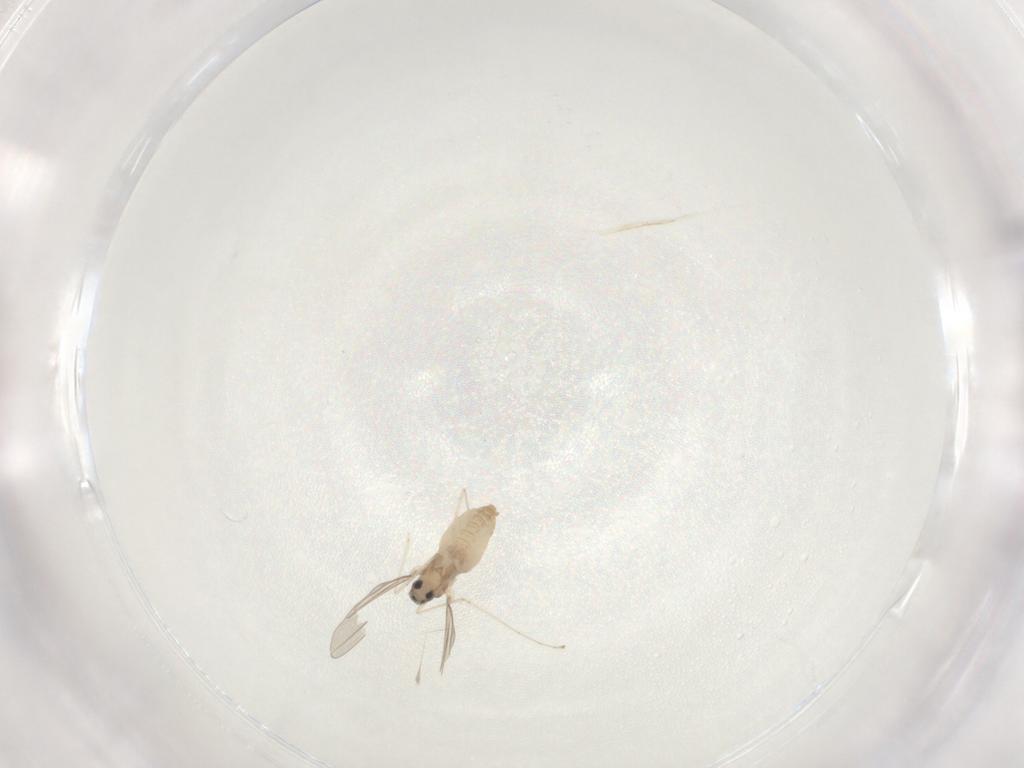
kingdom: Animalia
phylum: Arthropoda
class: Insecta
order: Diptera
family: Cecidomyiidae
